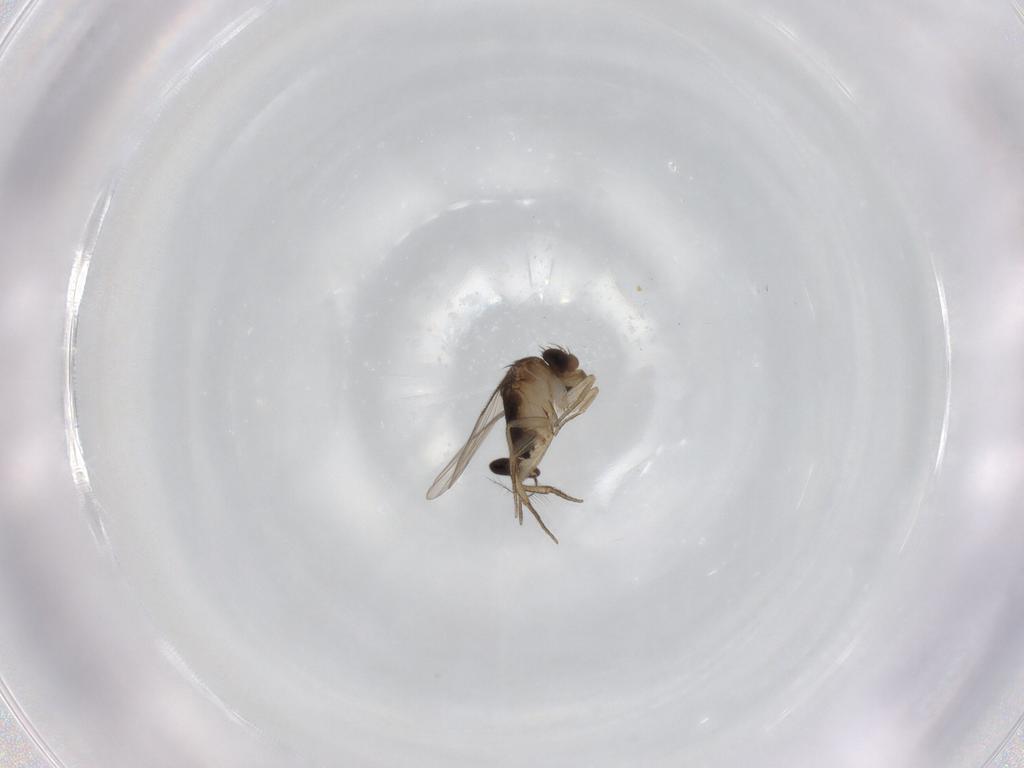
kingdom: Animalia
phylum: Arthropoda
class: Insecta
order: Diptera
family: Lauxaniidae
